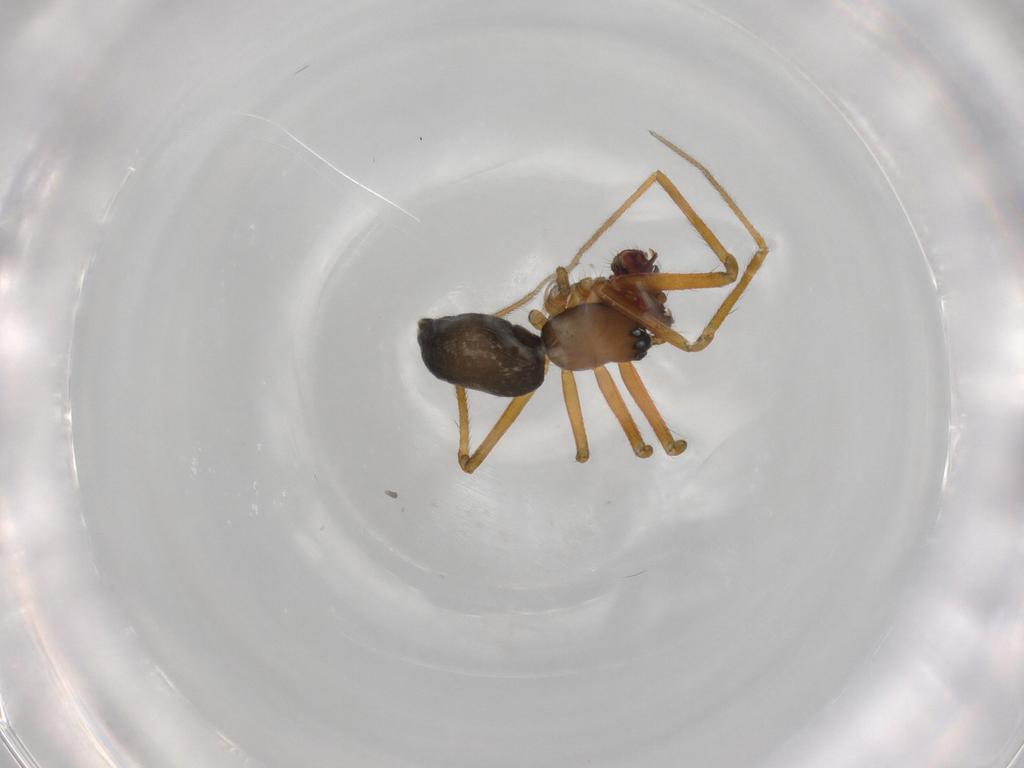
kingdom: Animalia
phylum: Arthropoda
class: Arachnida
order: Araneae
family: Linyphiidae
